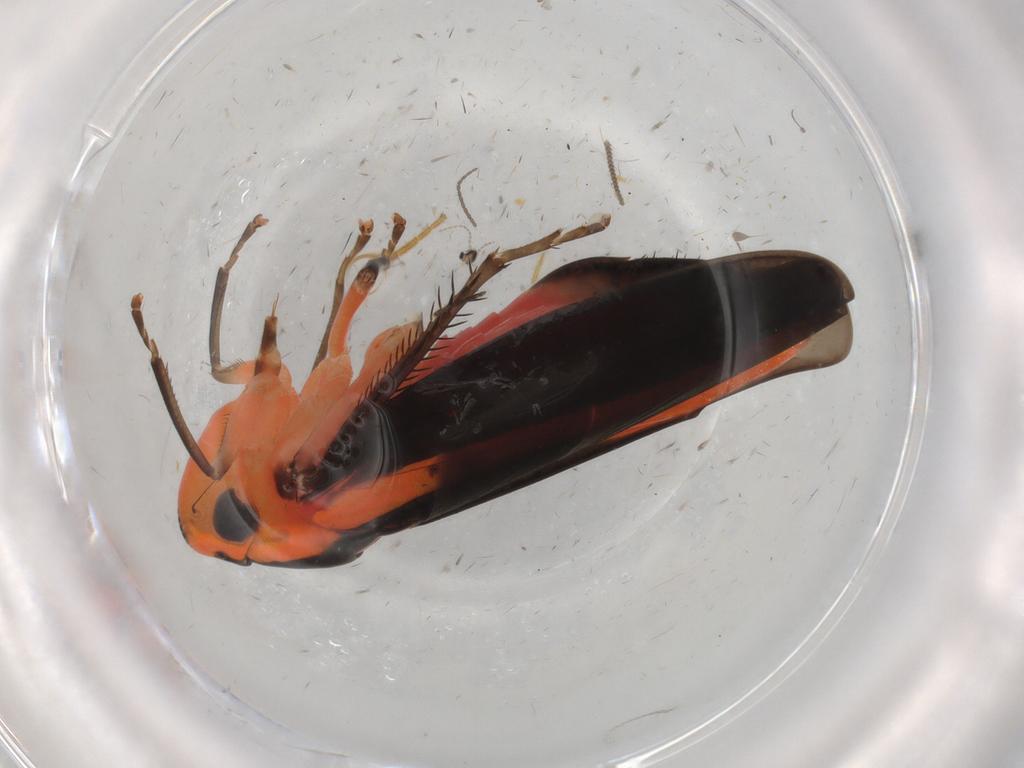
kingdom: Animalia
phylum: Arthropoda
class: Insecta
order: Hemiptera
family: Cicadellidae
